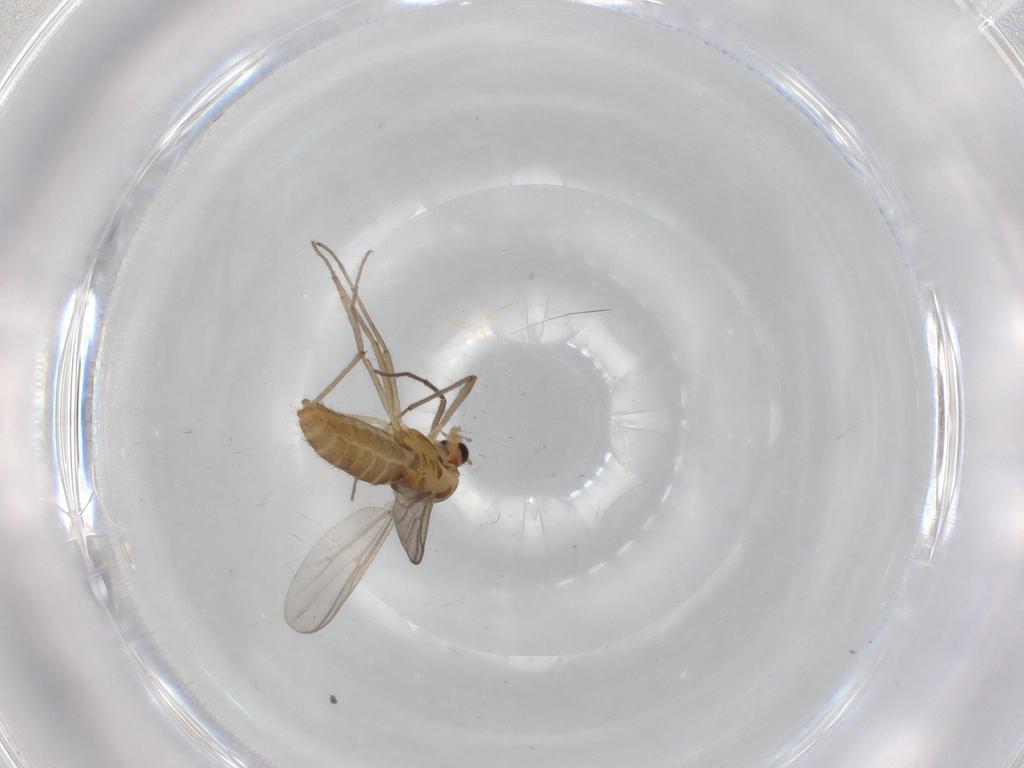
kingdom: Animalia
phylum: Arthropoda
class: Insecta
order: Diptera
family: Chironomidae
